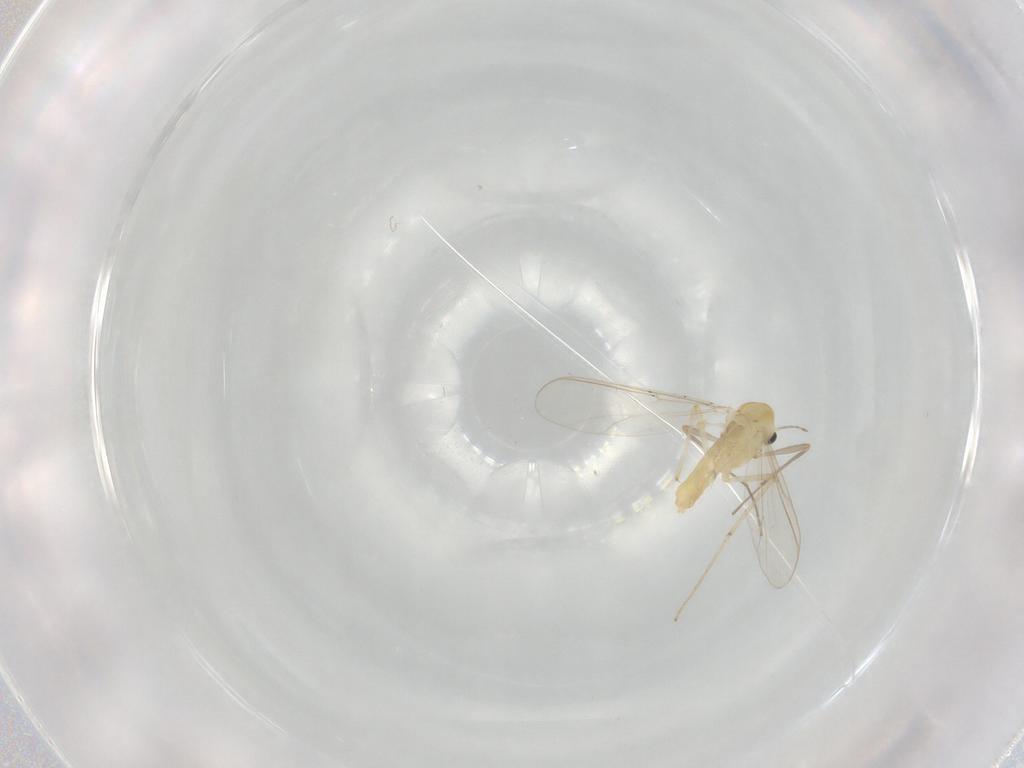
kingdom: Animalia
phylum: Arthropoda
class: Insecta
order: Diptera
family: Chironomidae
